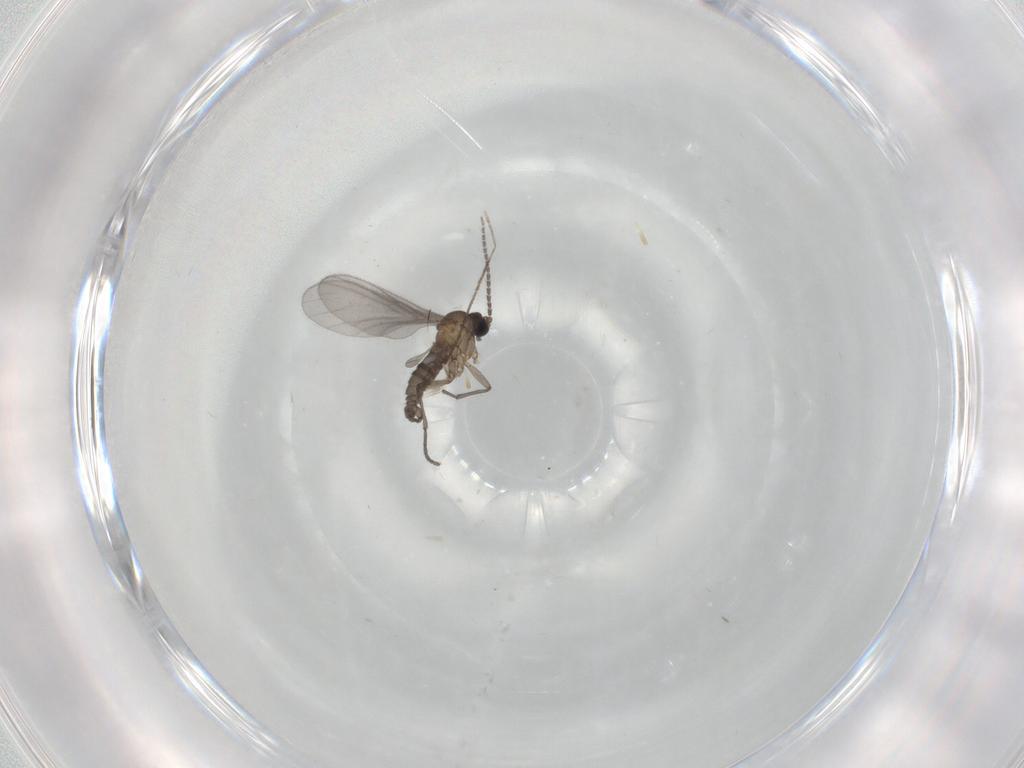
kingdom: Animalia
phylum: Arthropoda
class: Insecta
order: Diptera
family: Sciaridae
